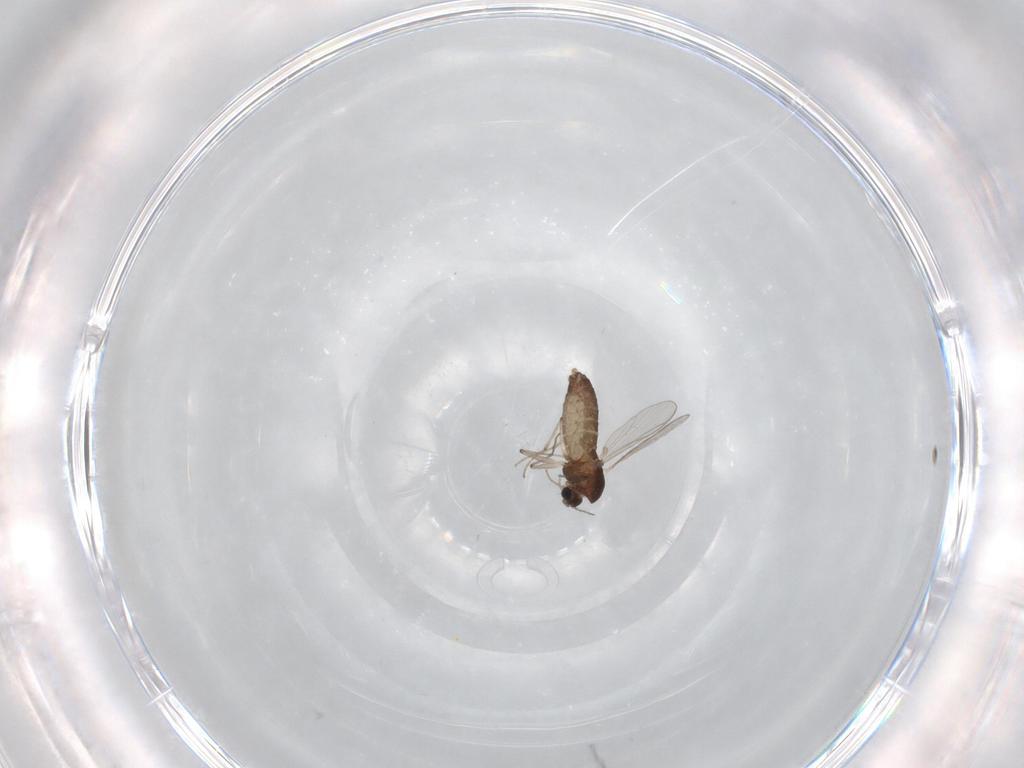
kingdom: Animalia
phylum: Arthropoda
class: Insecta
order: Diptera
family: Chironomidae
